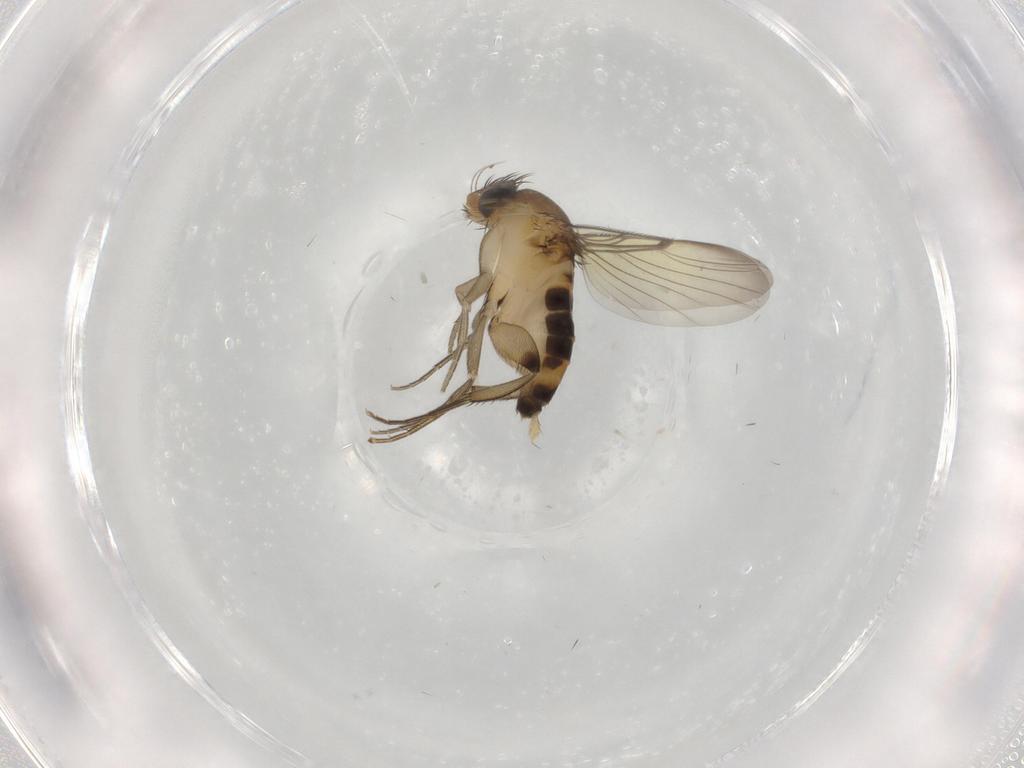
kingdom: Animalia
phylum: Arthropoda
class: Insecta
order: Diptera
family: Phoridae
